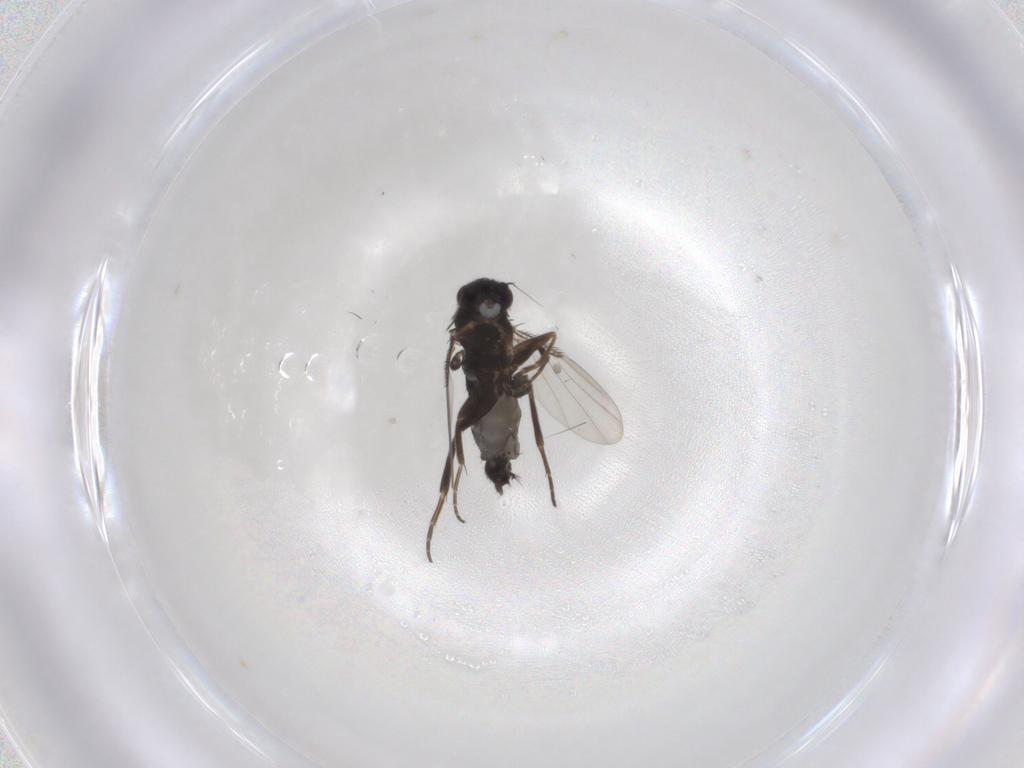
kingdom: Animalia
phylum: Arthropoda
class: Insecta
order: Diptera
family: Phoridae
